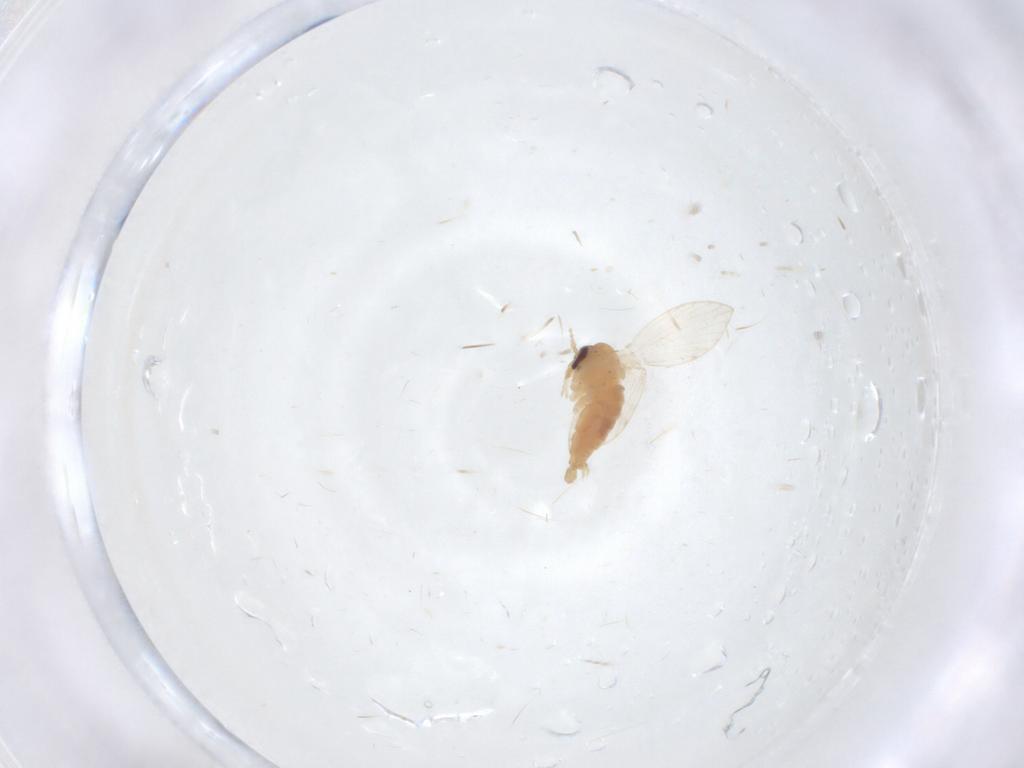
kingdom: Animalia
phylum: Arthropoda
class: Insecta
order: Diptera
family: Psychodidae
